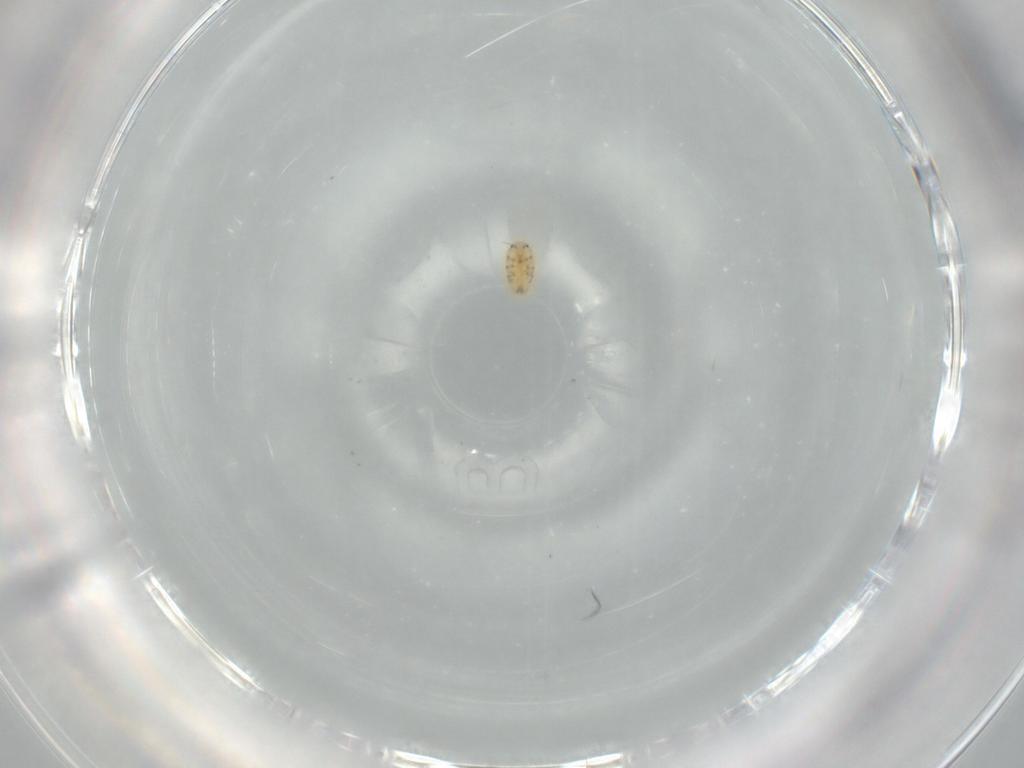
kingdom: Animalia
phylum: Arthropoda
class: Insecta
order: Hemiptera
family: Coccidae
